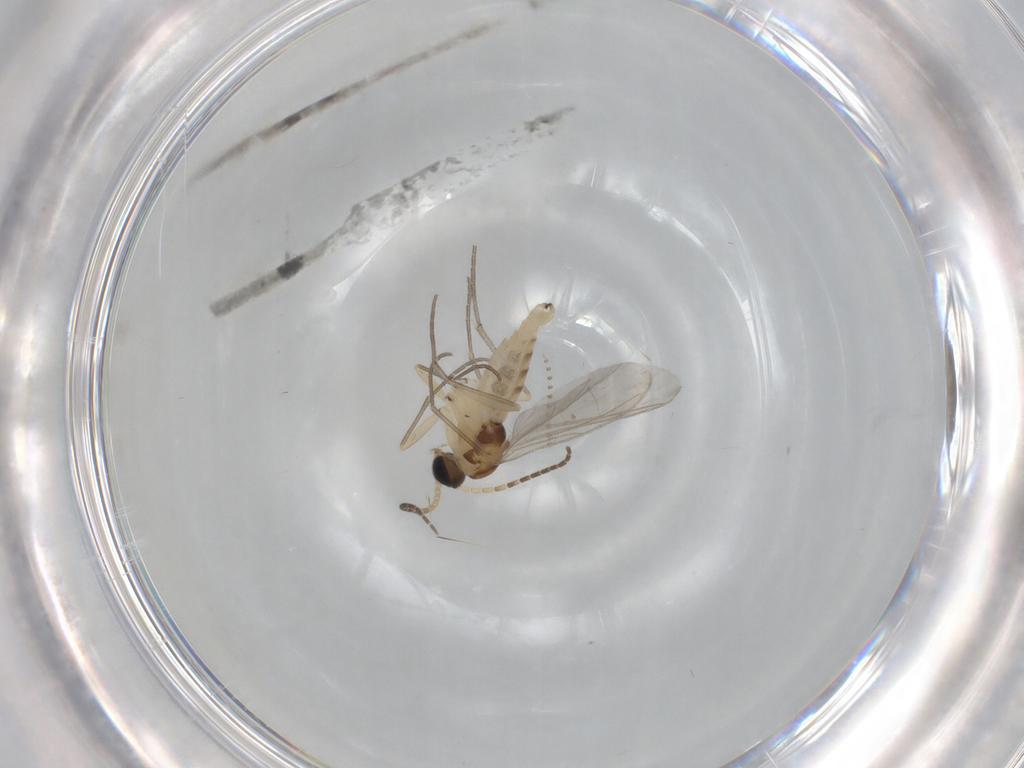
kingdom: Animalia
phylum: Arthropoda
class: Insecta
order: Diptera
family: Sciaridae
